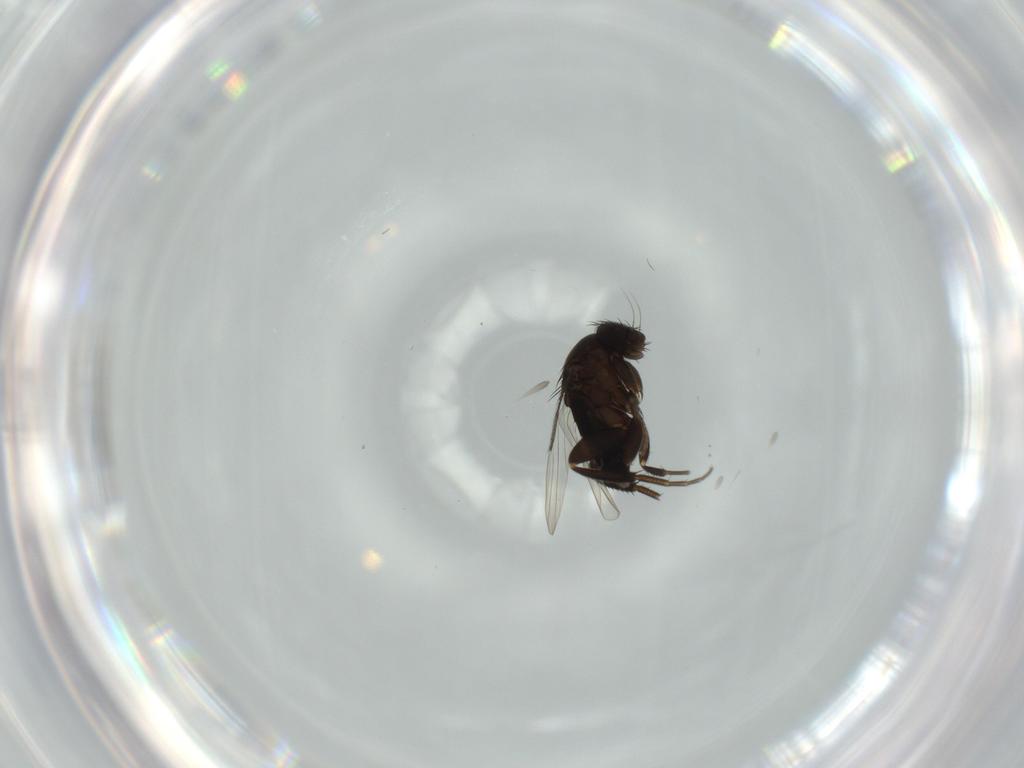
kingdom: Animalia
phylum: Arthropoda
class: Insecta
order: Diptera
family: Phoridae
